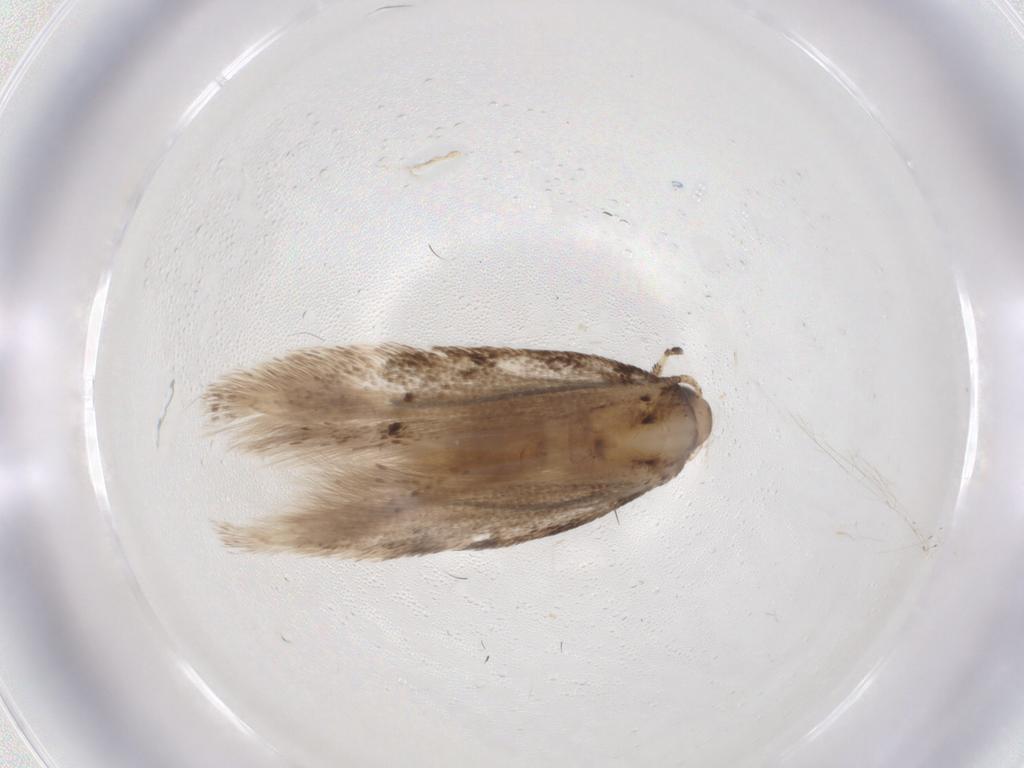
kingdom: Animalia
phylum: Arthropoda
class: Insecta
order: Lepidoptera
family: Gelechiidae
